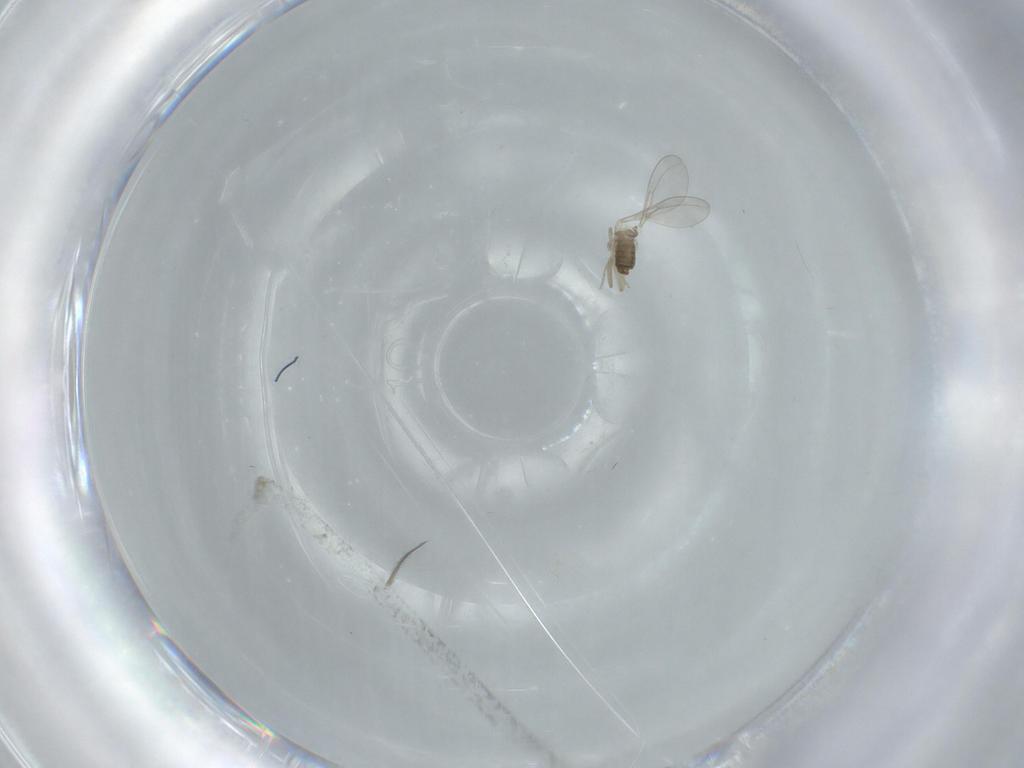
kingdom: Animalia
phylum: Arthropoda
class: Insecta
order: Diptera
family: Cecidomyiidae
